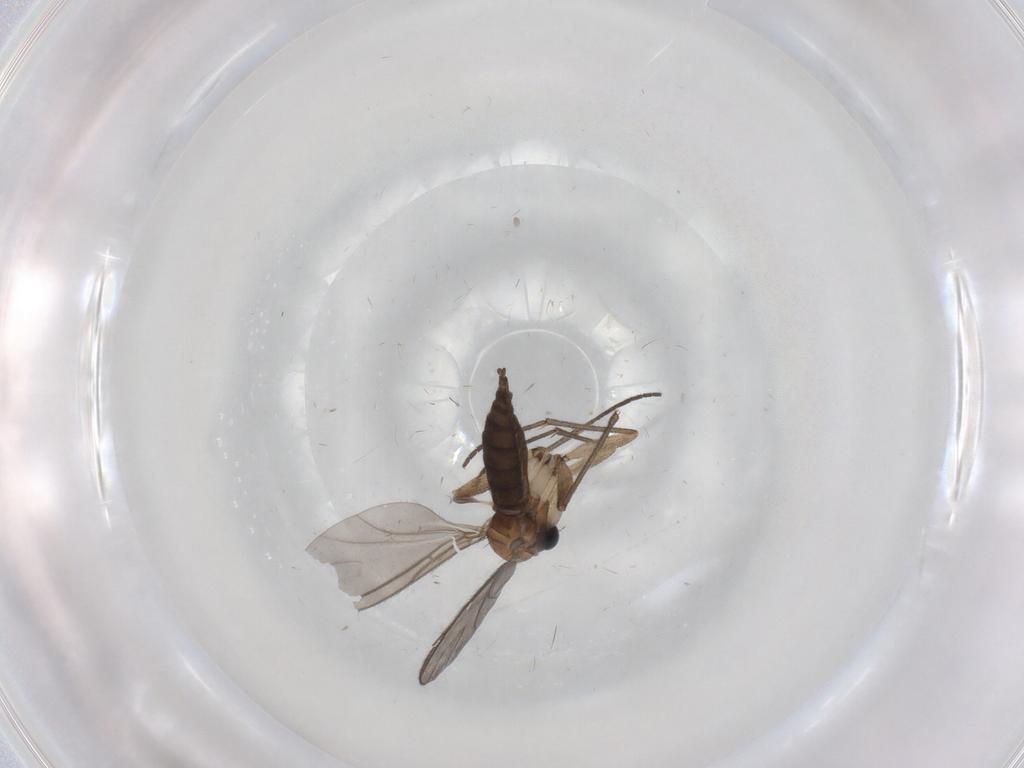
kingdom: Animalia
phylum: Arthropoda
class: Insecta
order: Diptera
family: Sciaridae
